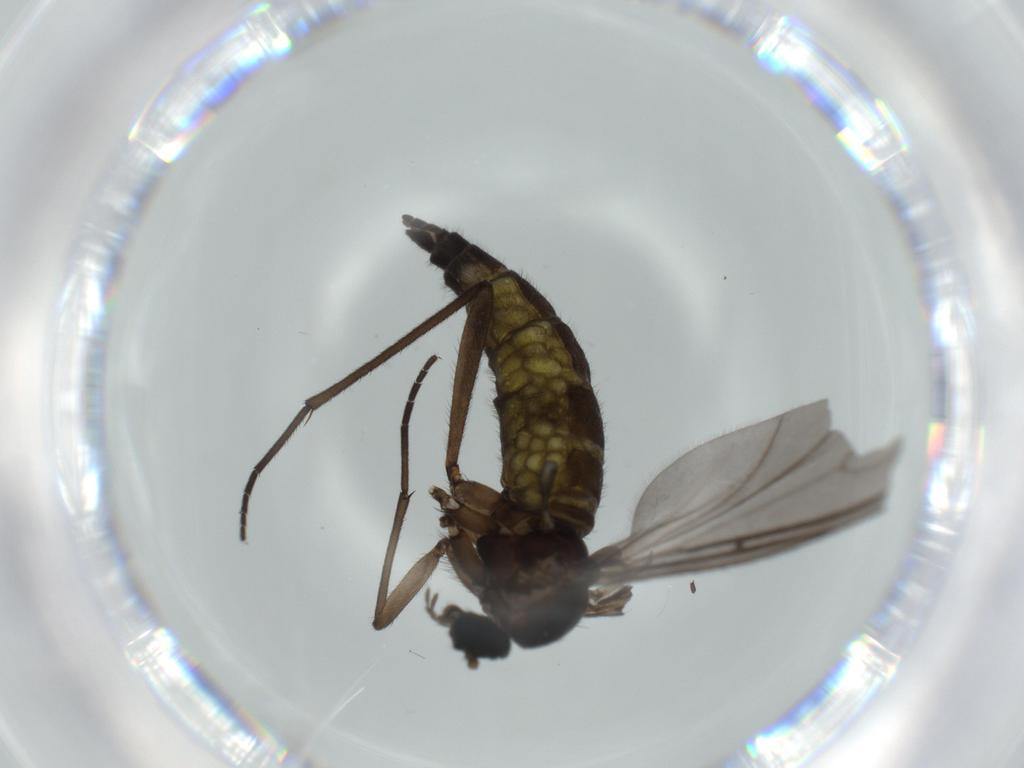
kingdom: Animalia
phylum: Arthropoda
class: Insecta
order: Diptera
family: Sciaridae
